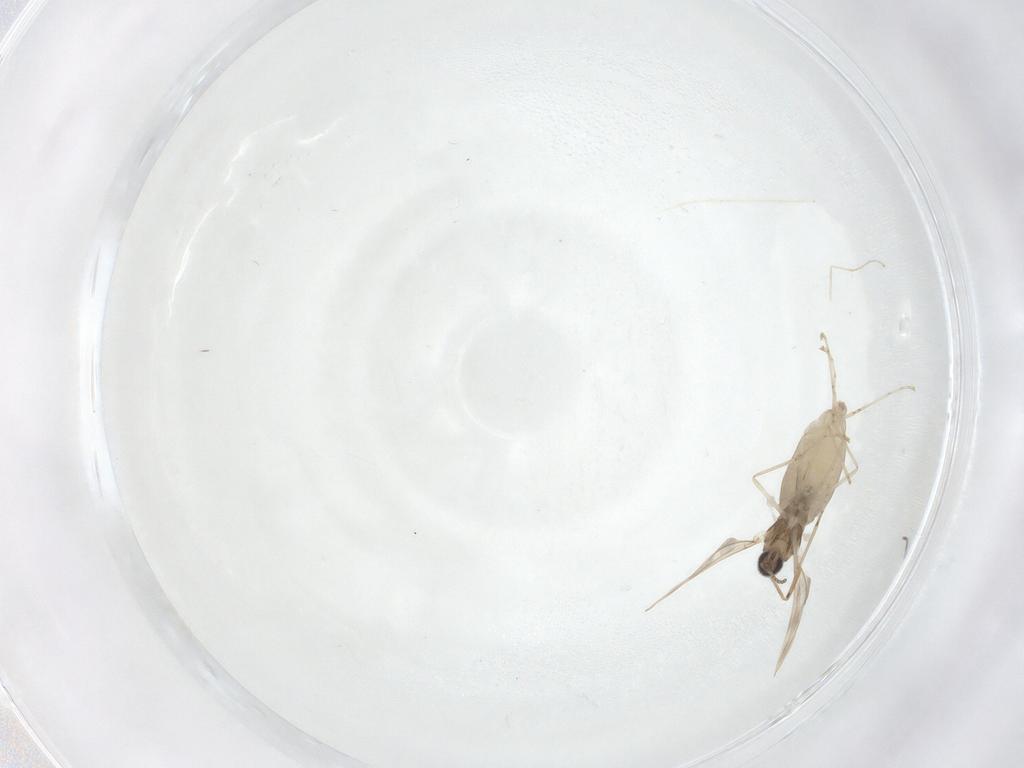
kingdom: Animalia
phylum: Arthropoda
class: Insecta
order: Diptera
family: Cecidomyiidae
